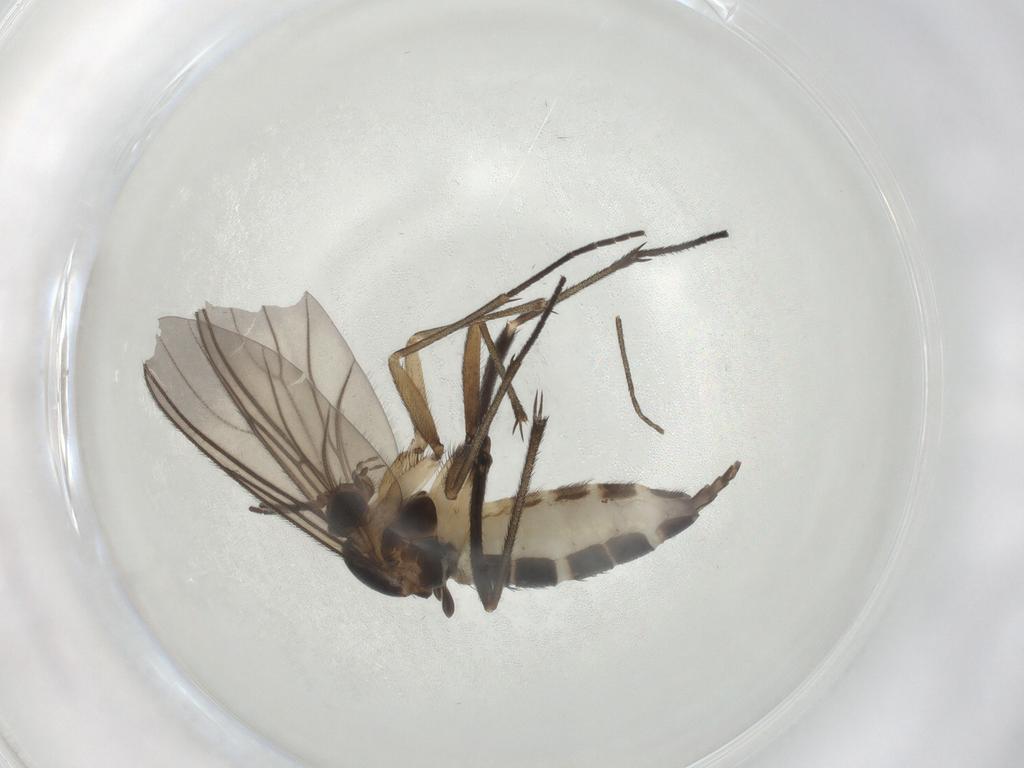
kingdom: Animalia
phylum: Arthropoda
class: Insecta
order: Diptera
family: Sciaridae
